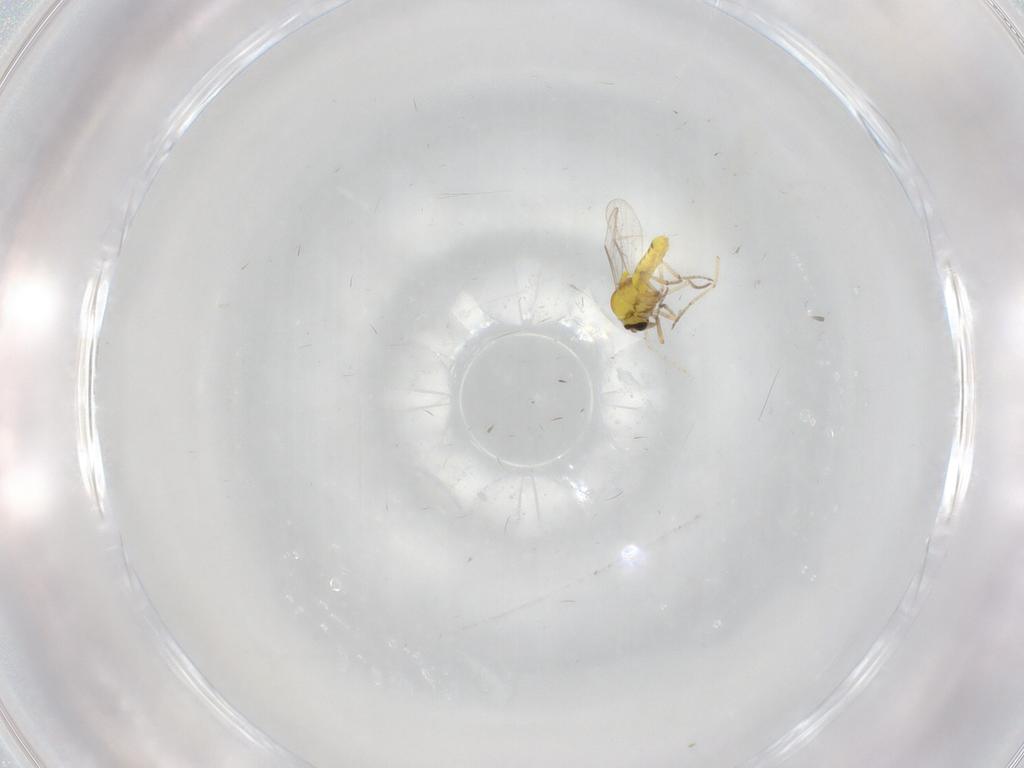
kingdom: Animalia
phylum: Arthropoda
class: Insecta
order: Diptera
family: Ceratopogonidae
